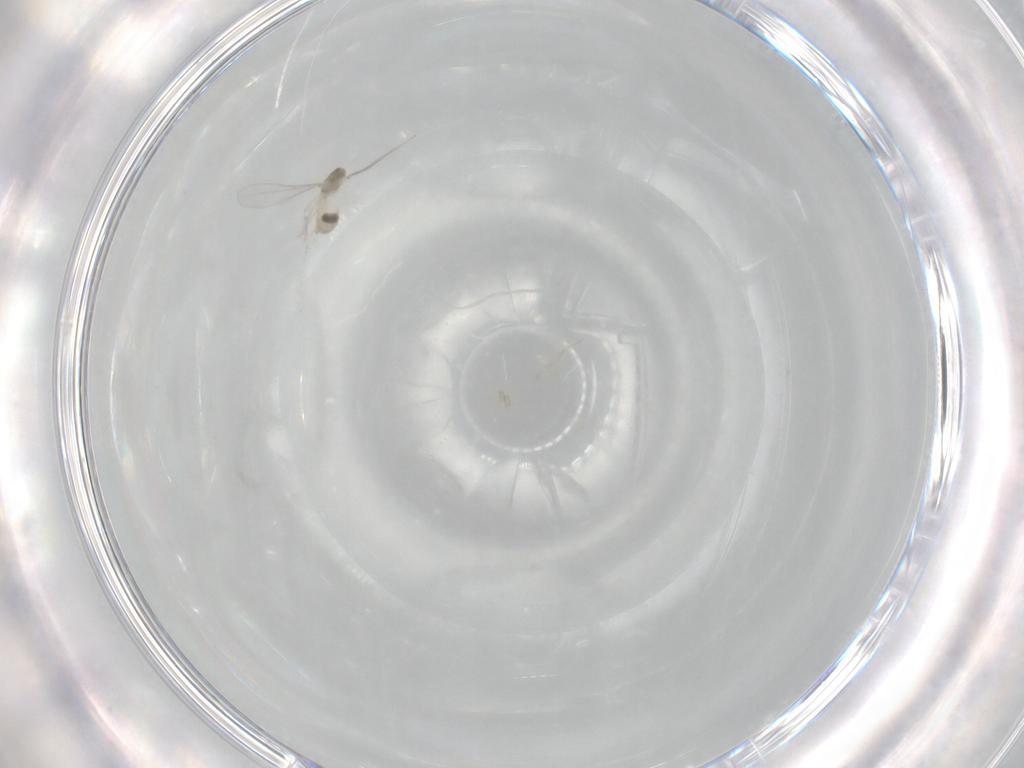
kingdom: Animalia
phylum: Arthropoda
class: Insecta
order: Diptera
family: Cecidomyiidae
